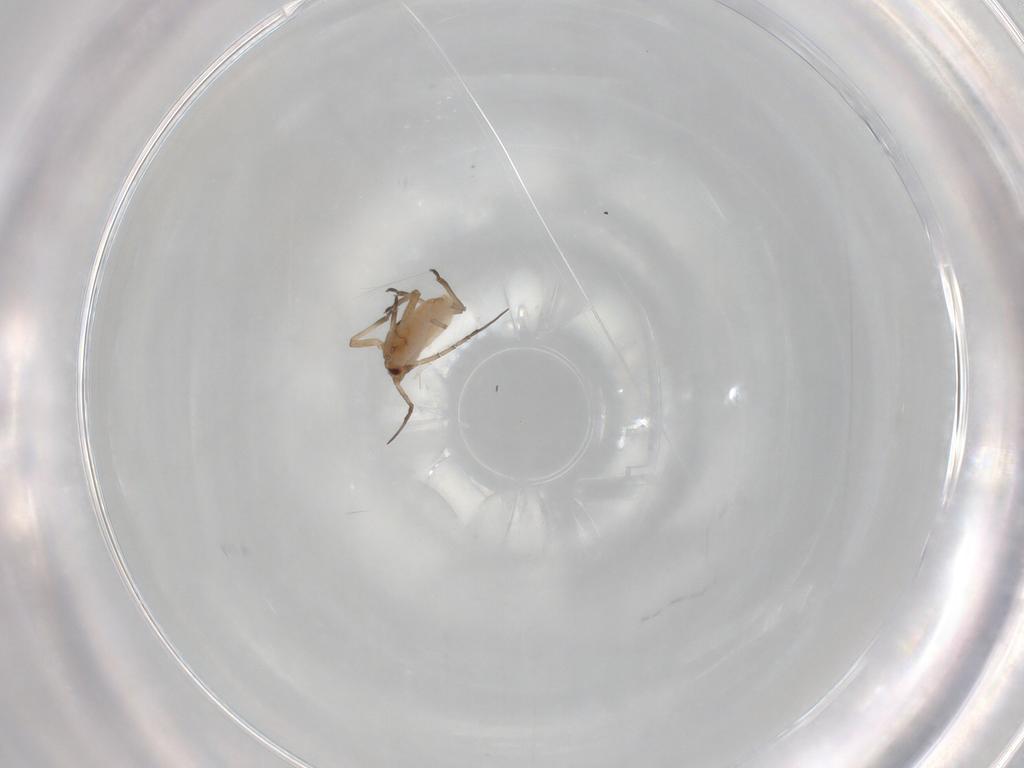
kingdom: Animalia
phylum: Arthropoda
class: Insecta
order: Hemiptera
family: Aphididae
